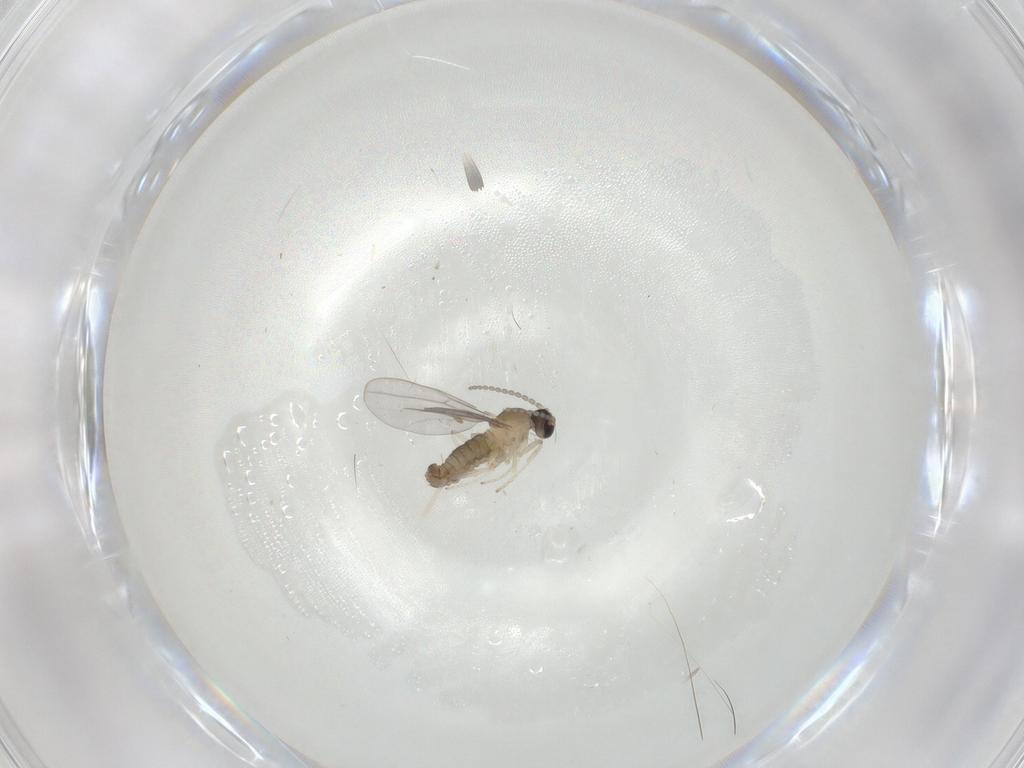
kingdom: Animalia
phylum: Arthropoda
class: Insecta
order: Diptera
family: Cecidomyiidae
